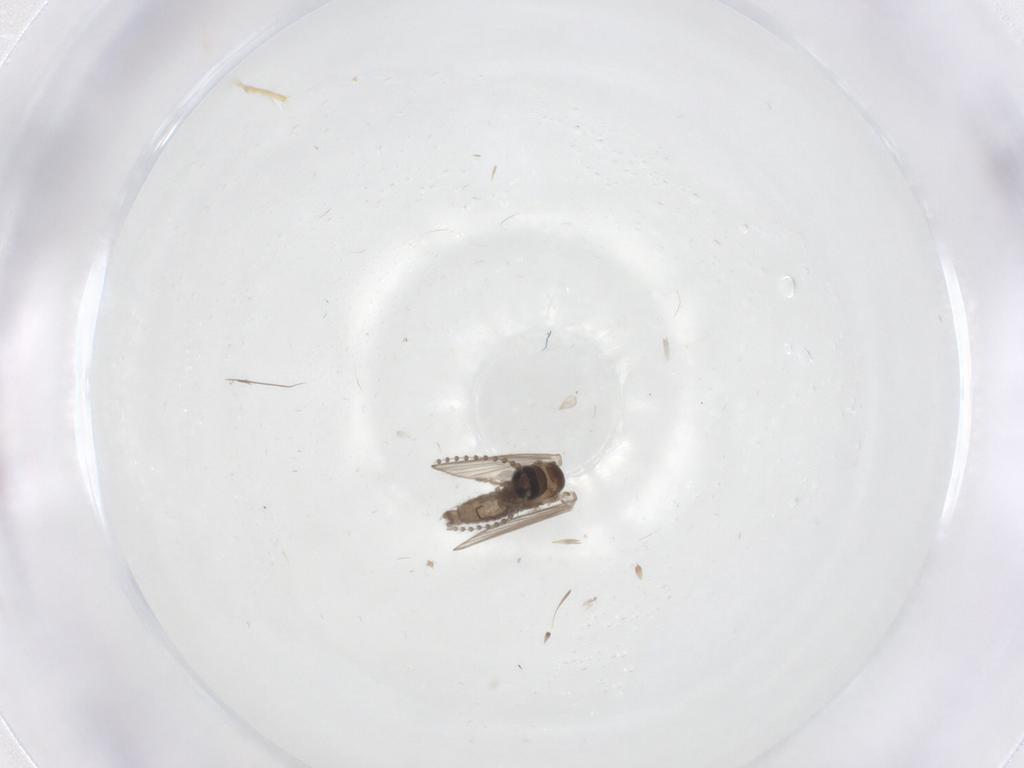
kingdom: Animalia
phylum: Arthropoda
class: Insecta
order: Diptera
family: Psychodidae
